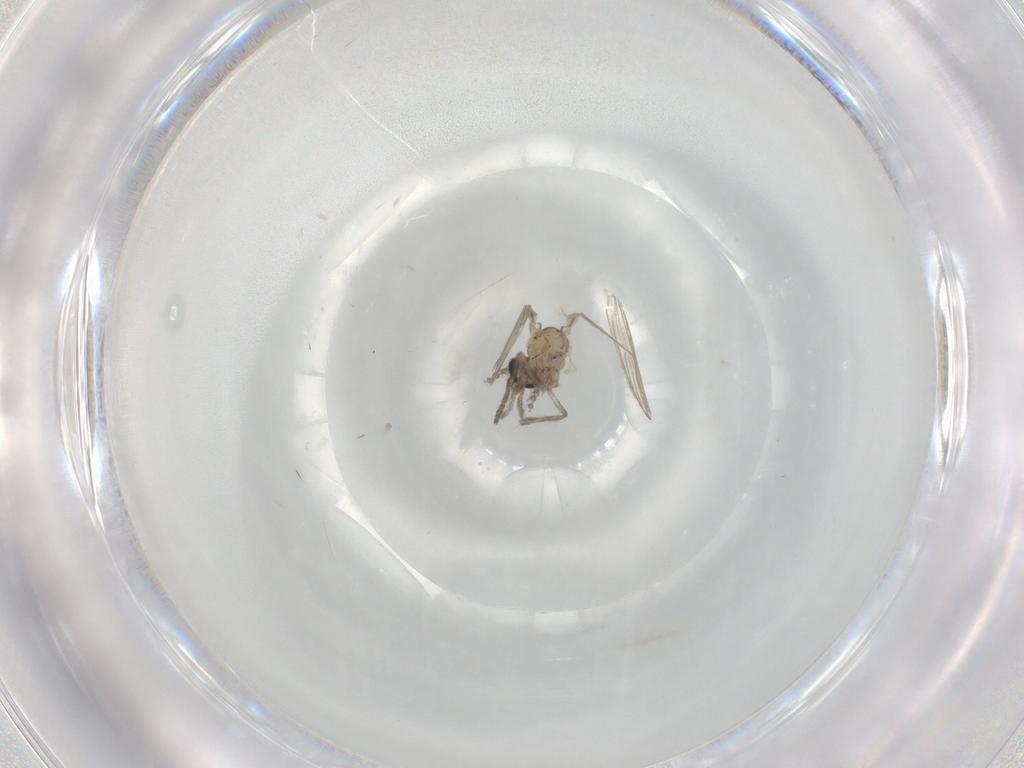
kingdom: Animalia
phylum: Arthropoda
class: Insecta
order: Diptera
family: Psychodidae
